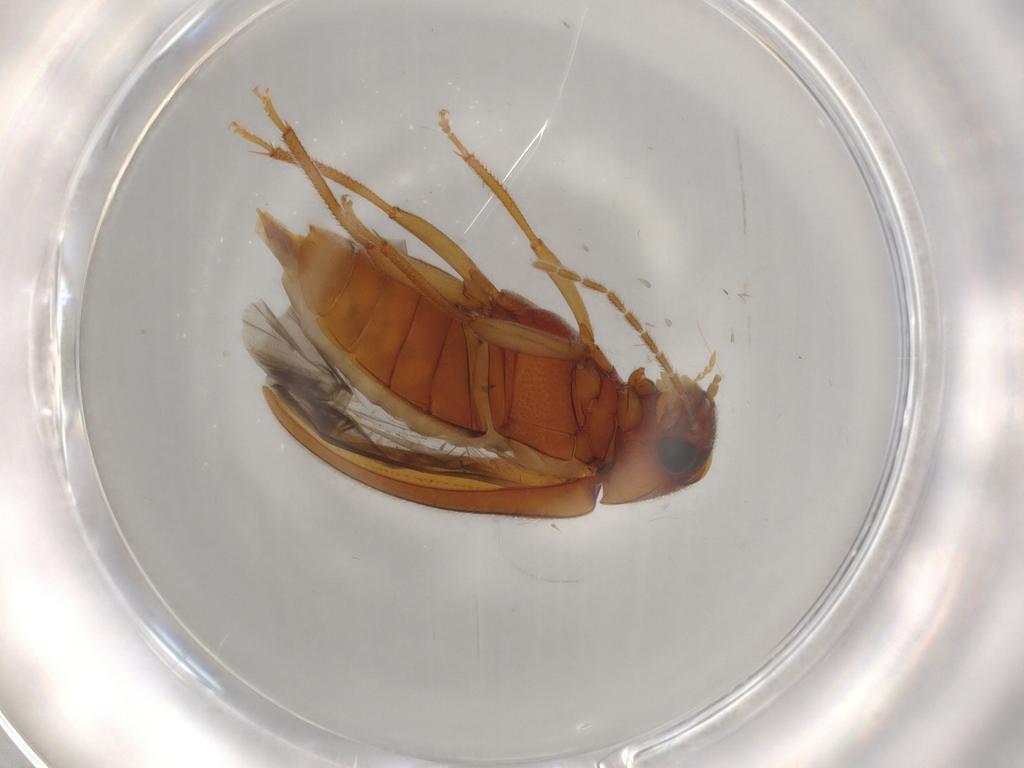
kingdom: Animalia
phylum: Arthropoda
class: Insecta
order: Coleoptera
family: Ptilodactylidae
